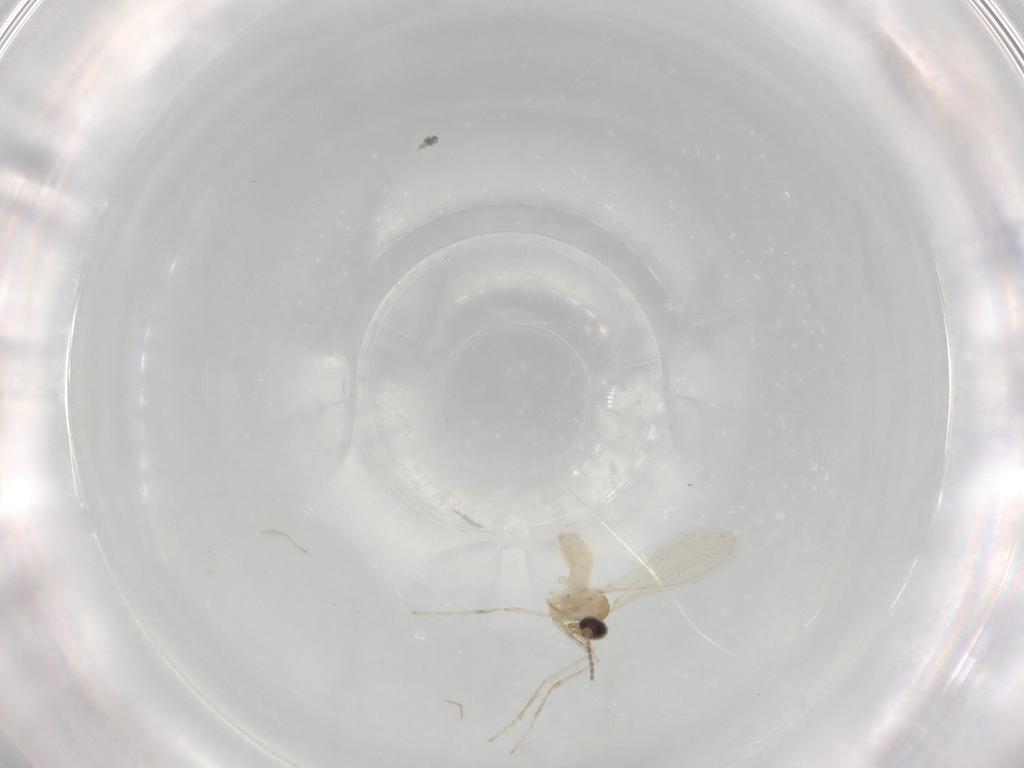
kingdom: Animalia
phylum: Arthropoda
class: Insecta
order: Diptera
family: Cecidomyiidae
